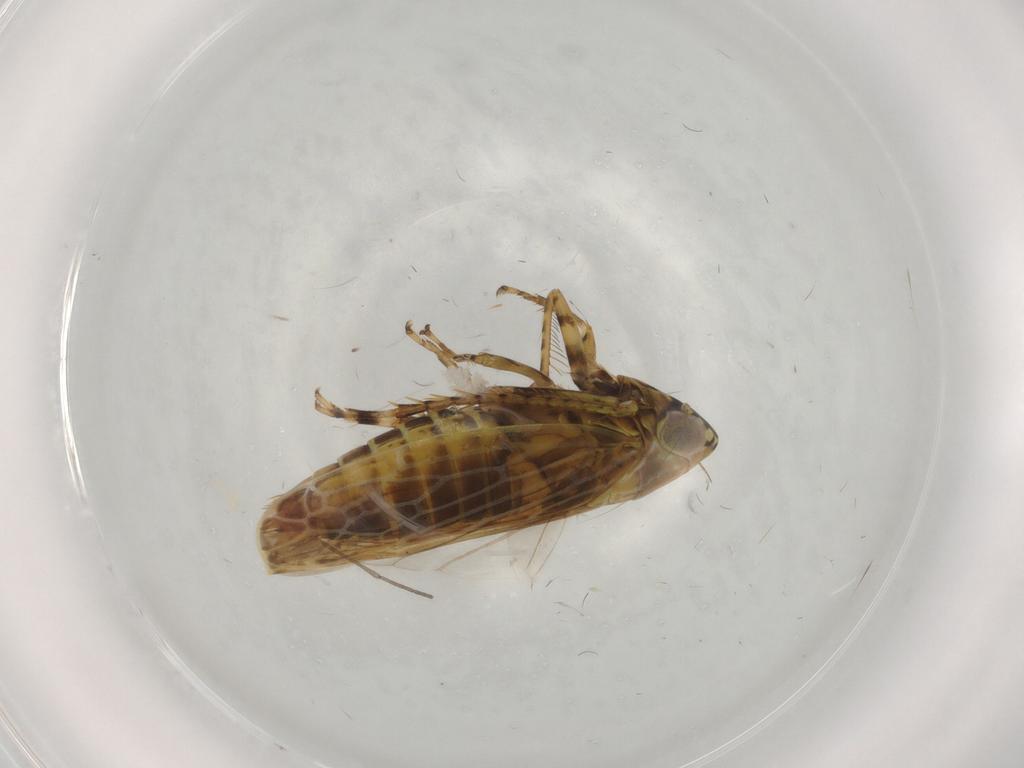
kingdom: Animalia
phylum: Arthropoda
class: Insecta
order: Hemiptera
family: Cicadellidae
